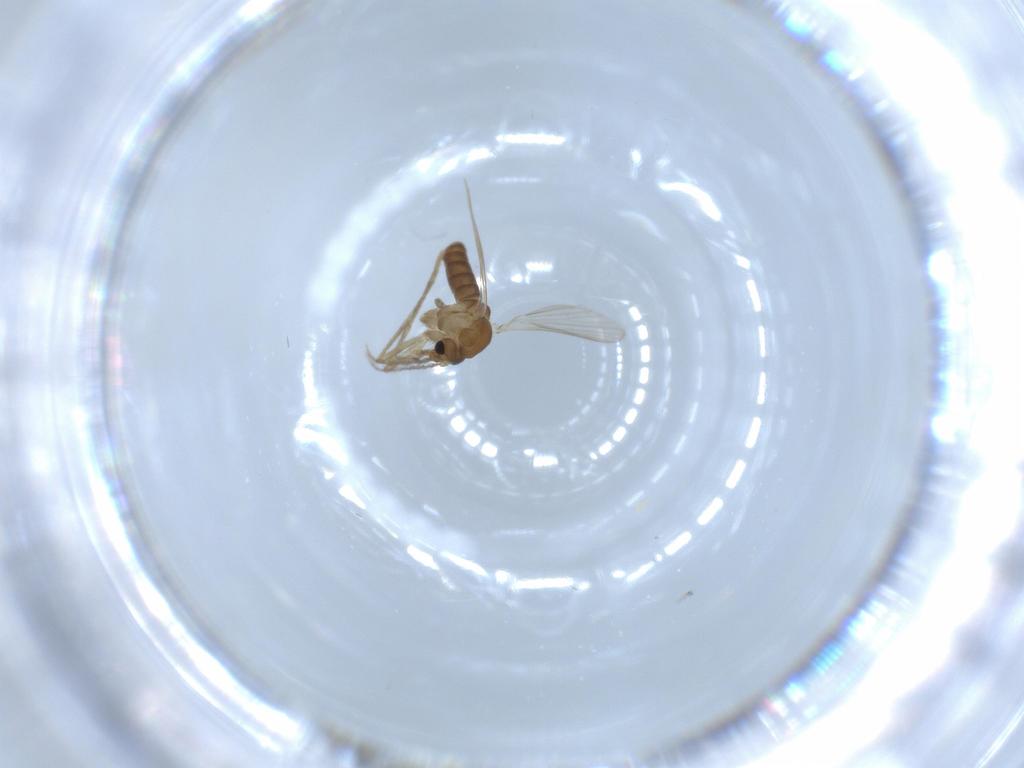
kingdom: Animalia
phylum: Arthropoda
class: Insecta
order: Diptera
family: Psychodidae
